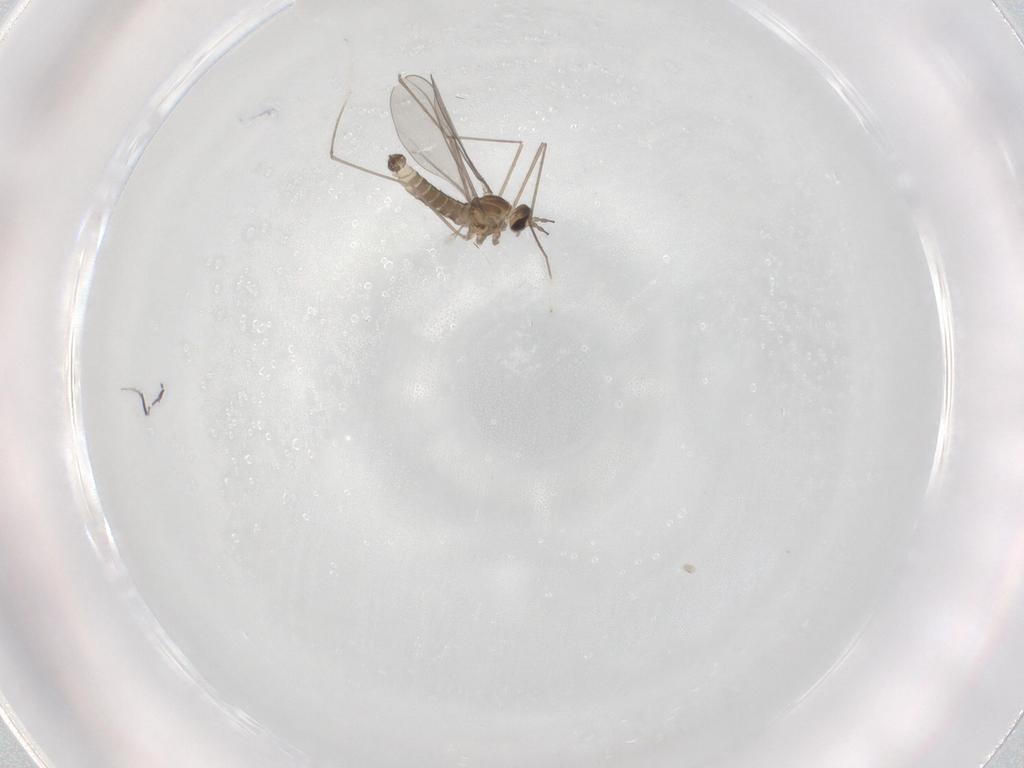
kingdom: Animalia
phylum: Arthropoda
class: Insecta
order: Diptera
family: Cecidomyiidae
